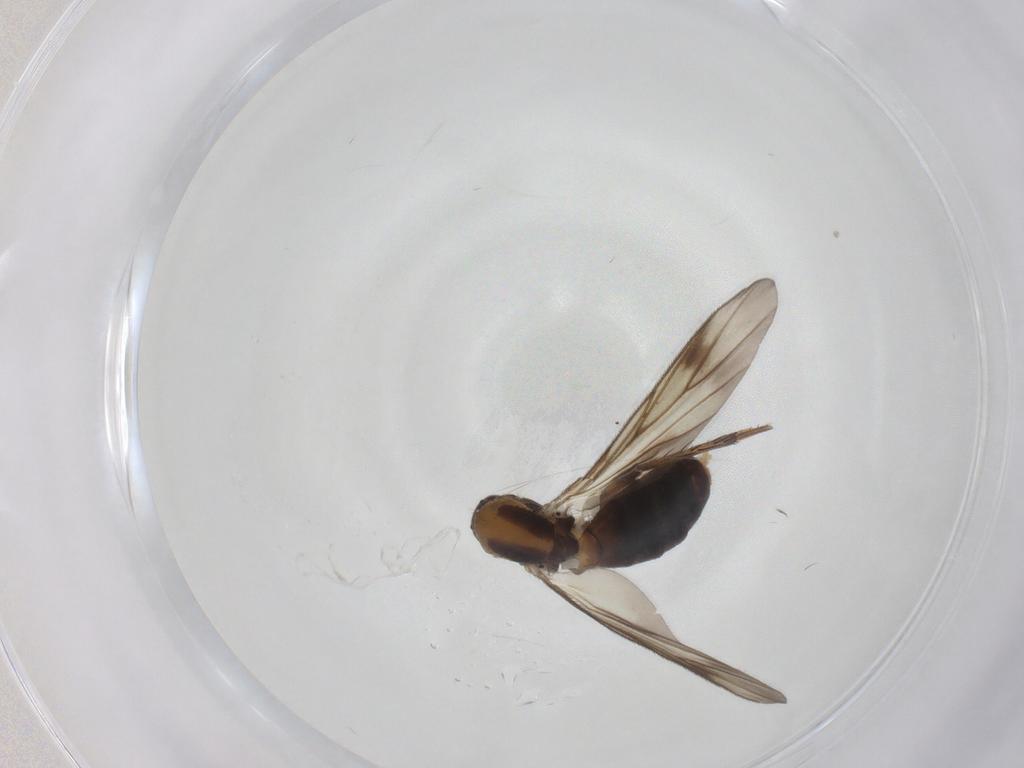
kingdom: Animalia
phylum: Arthropoda
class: Insecta
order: Diptera
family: Mycetophilidae
